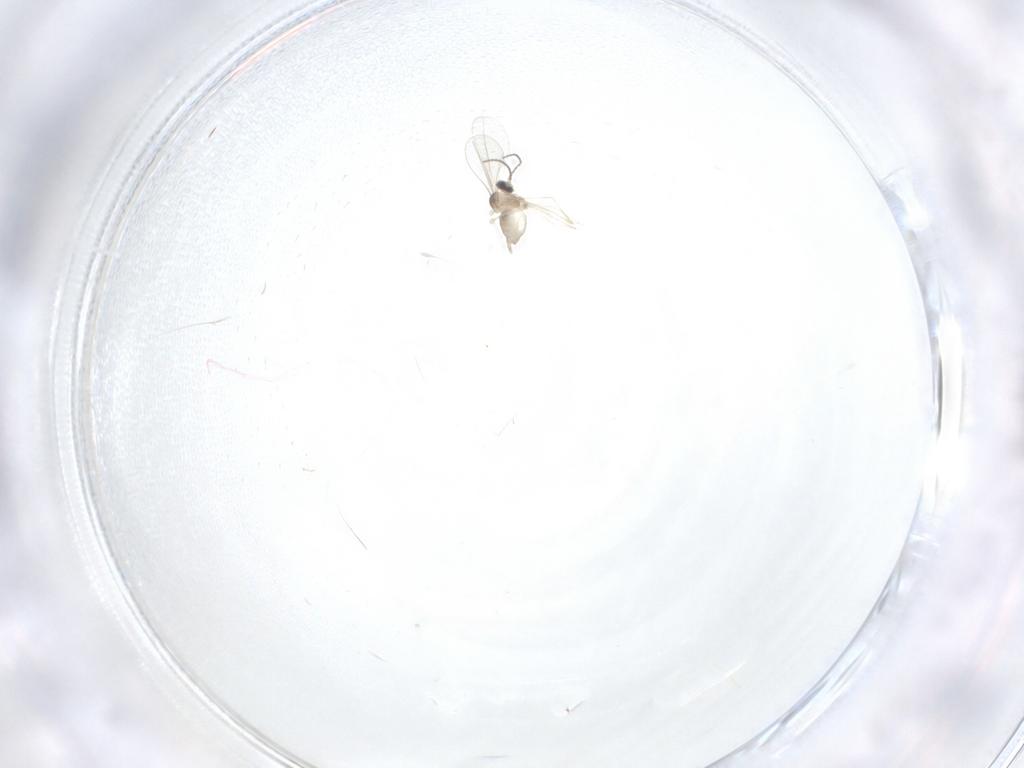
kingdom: Animalia
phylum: Arthropoda
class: Insecta
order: Diptera
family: Cecidomyiidae
